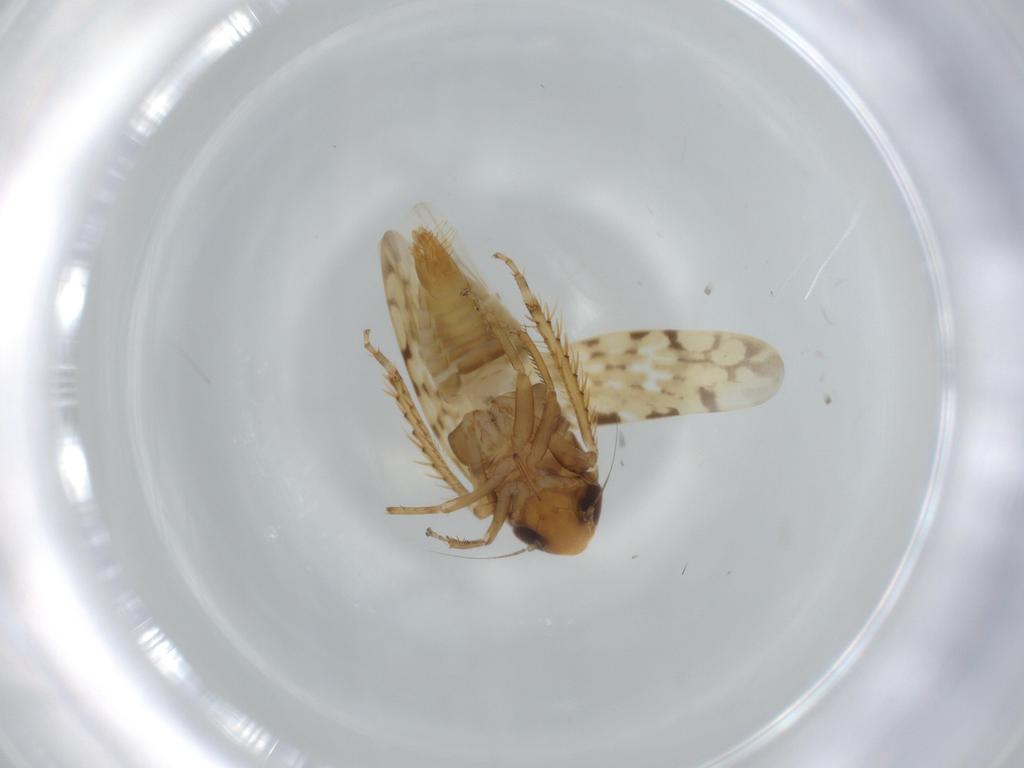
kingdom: Animalia
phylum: Arthropoda
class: Insecta
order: Hemiptera
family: Cicadellidae
